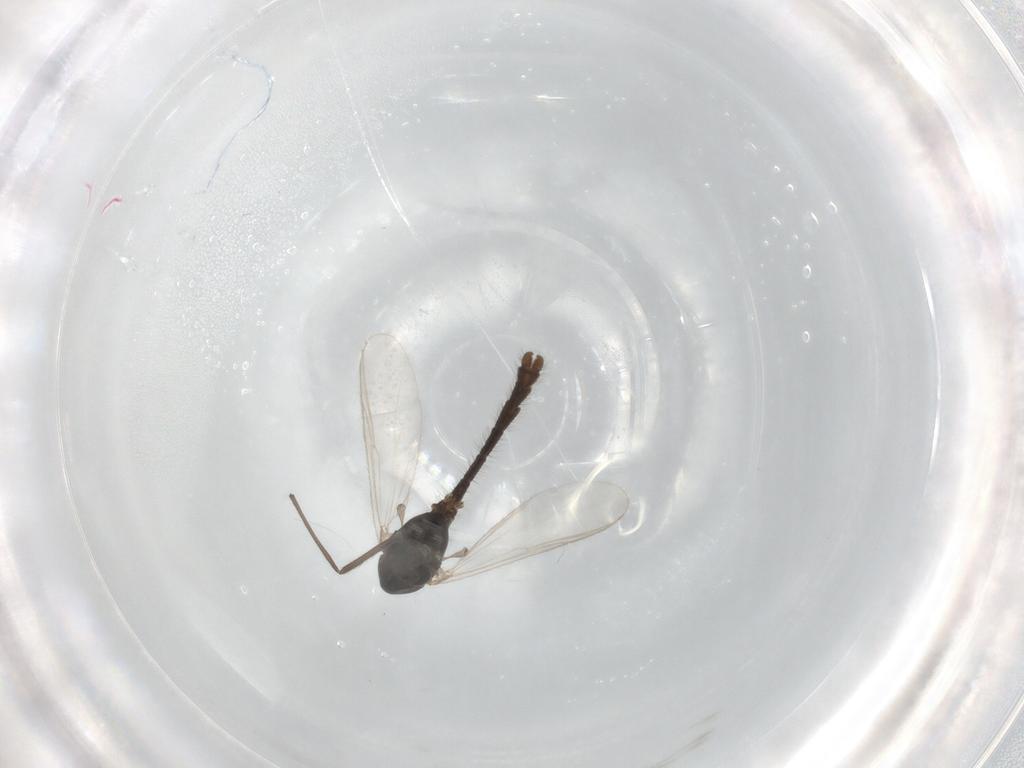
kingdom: Animalia
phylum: Arthropoda
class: Insecta
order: Diptera
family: Chironomidae
